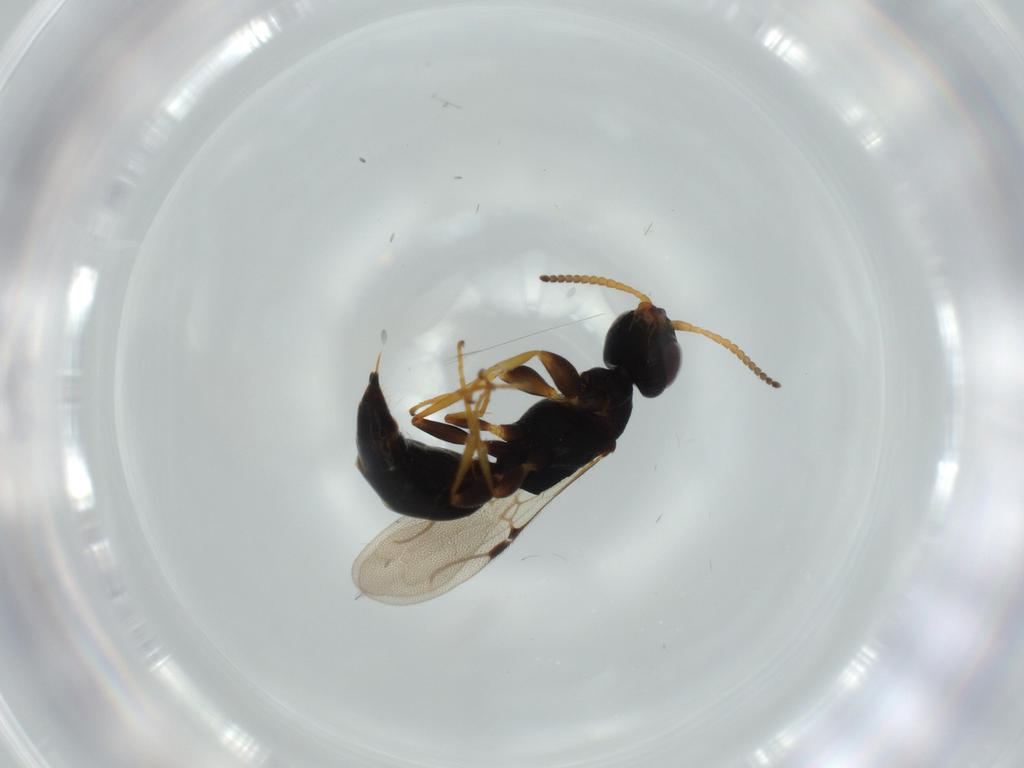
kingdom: Animalia
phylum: Arthropoda
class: Insecta
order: Hymenoptera
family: Bethylidae
